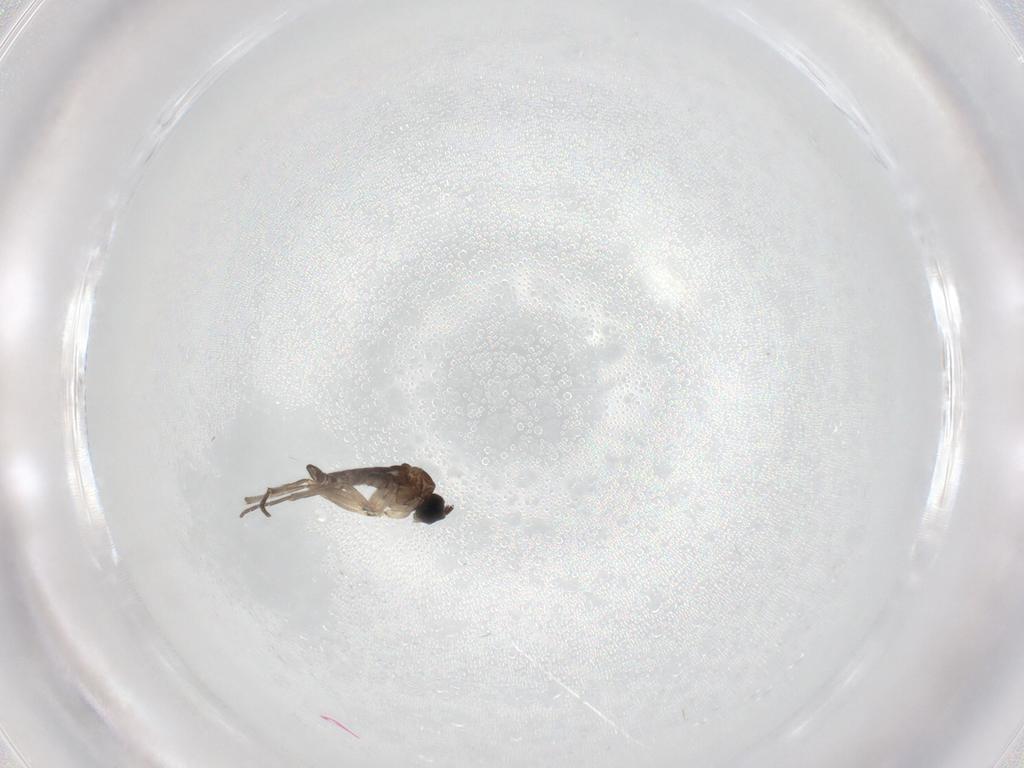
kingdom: Animalia
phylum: Arthropoda
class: Insecta
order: Diptera
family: Sciaridae
